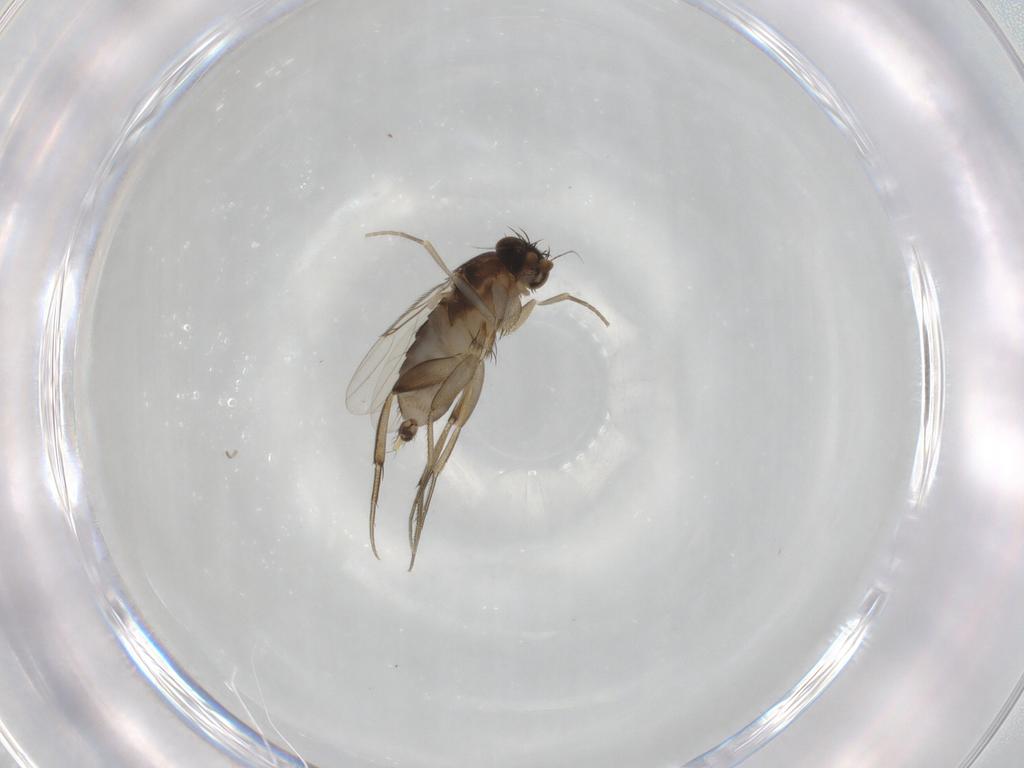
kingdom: Animalia
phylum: Arthropoda
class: Insecta
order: Diptera
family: Phoridae
